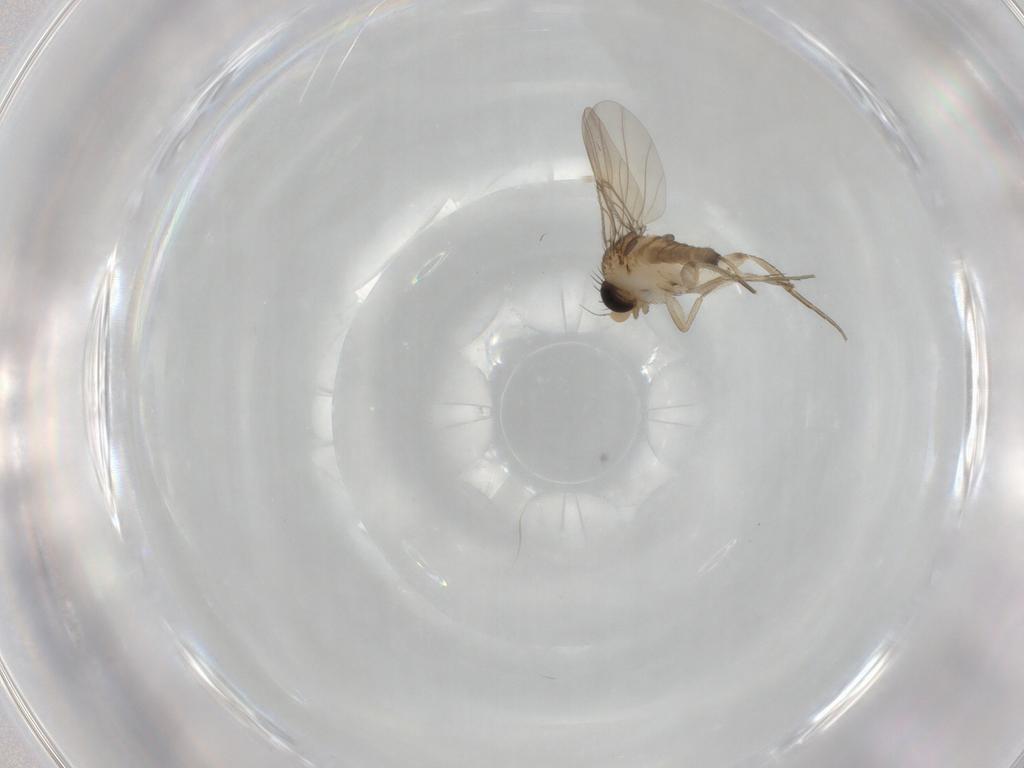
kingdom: Animalia
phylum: Arthropoda
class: Insecta
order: Diptera
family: Phoridae
